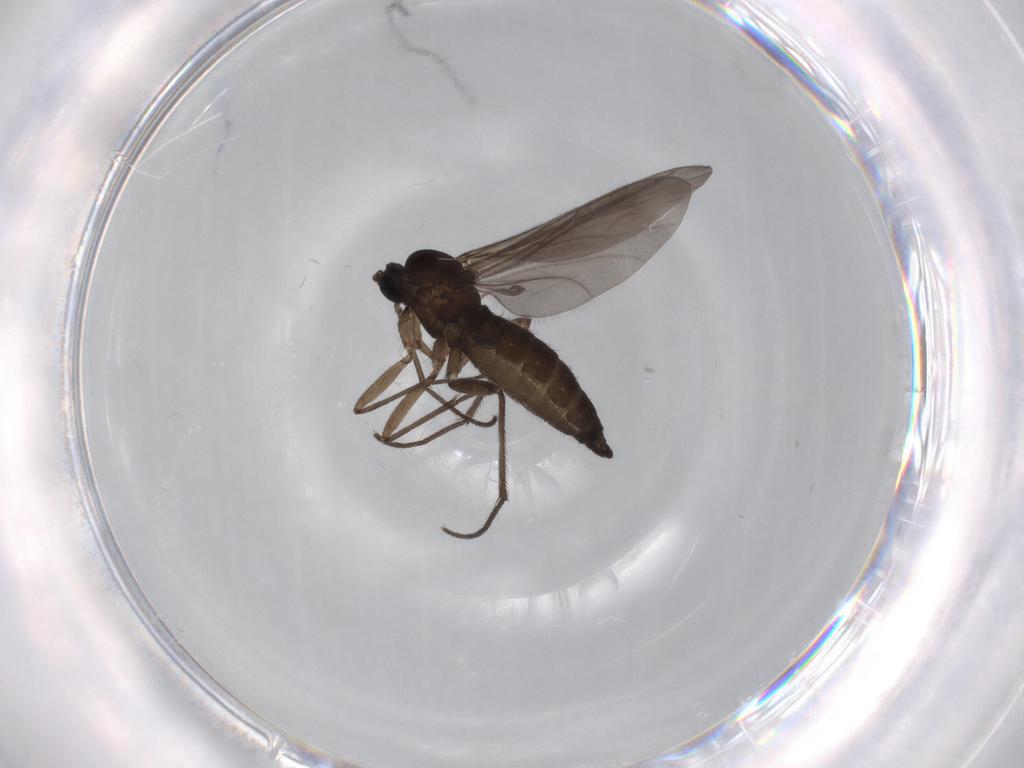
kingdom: Animalia
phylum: Arthropoda
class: Insecta
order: Diptera
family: Sciaridae
